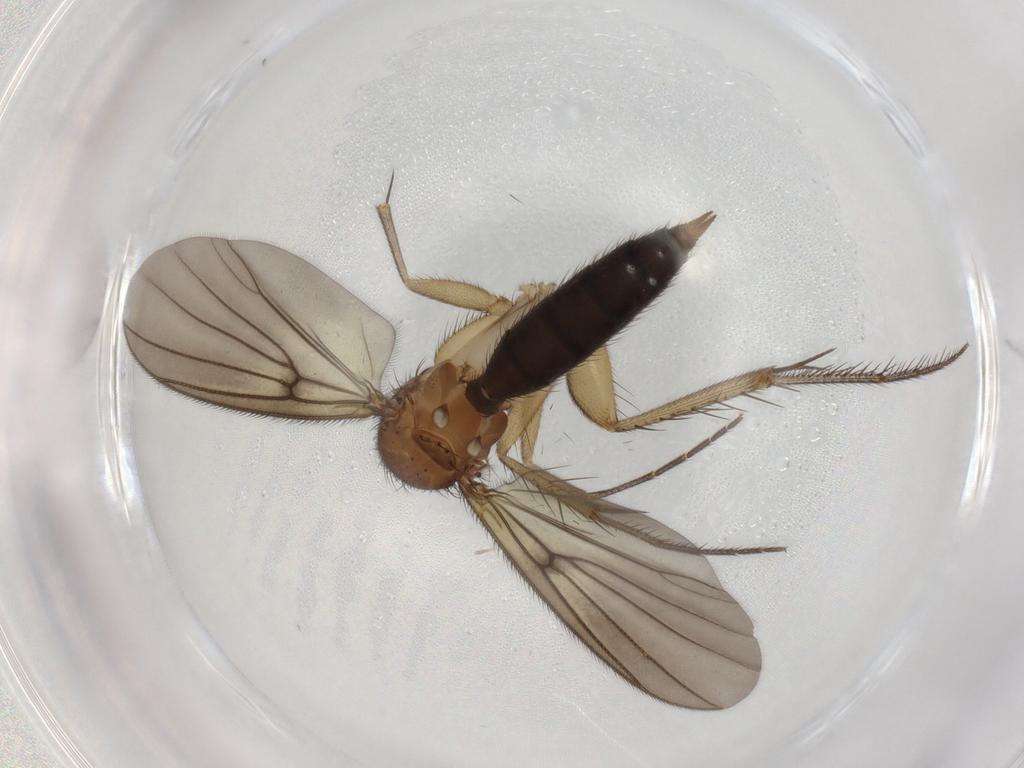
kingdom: Animalia
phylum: Arthropoda
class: Insecta
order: Diptera
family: Mycetophilidae
